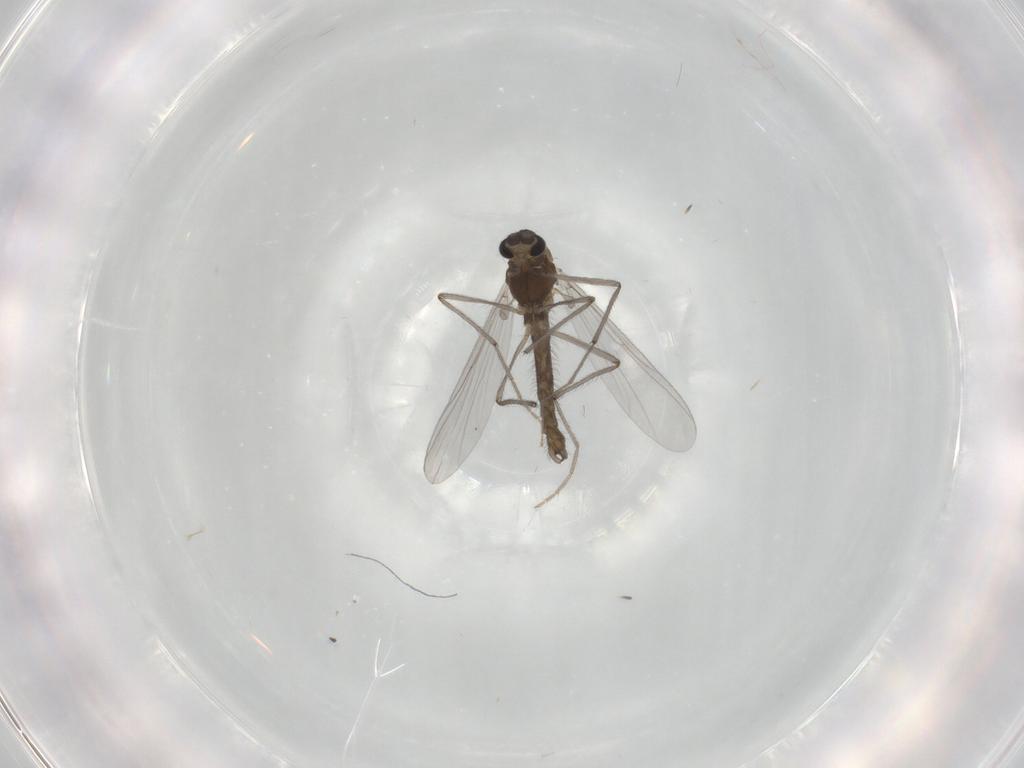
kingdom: Animalia
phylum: Arthropoda
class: Insecta
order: Diptera
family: Chironomidae
